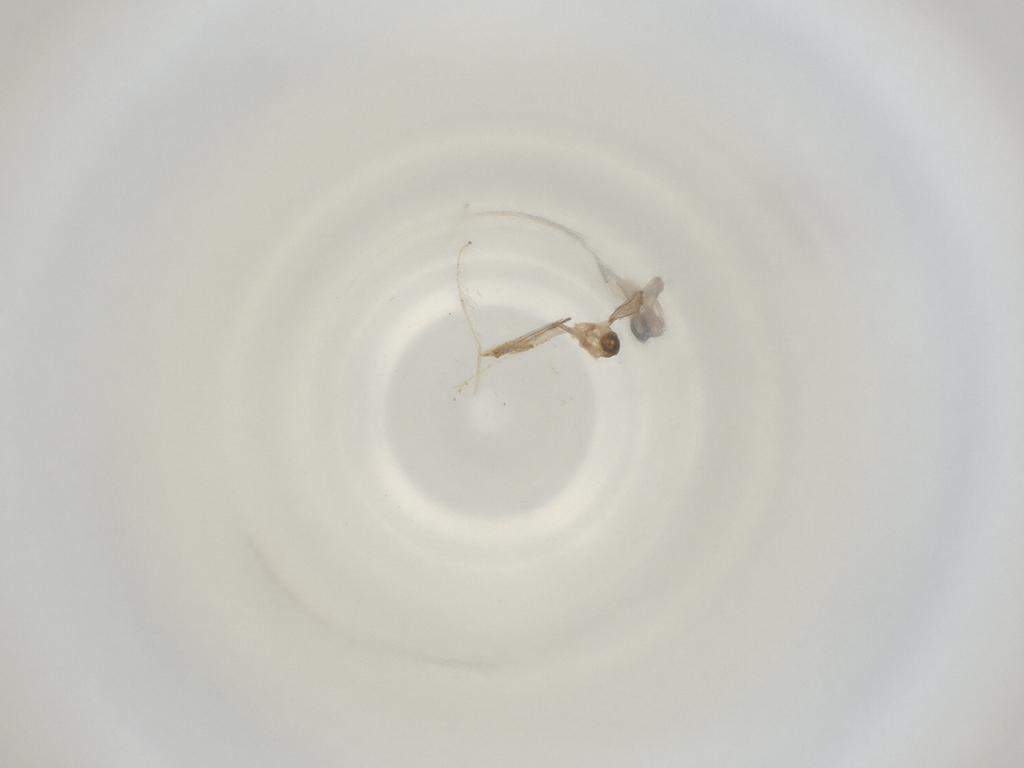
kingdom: Animalia
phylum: Arthropoda
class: Insecta
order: Diptera
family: Cecidomyiidae
